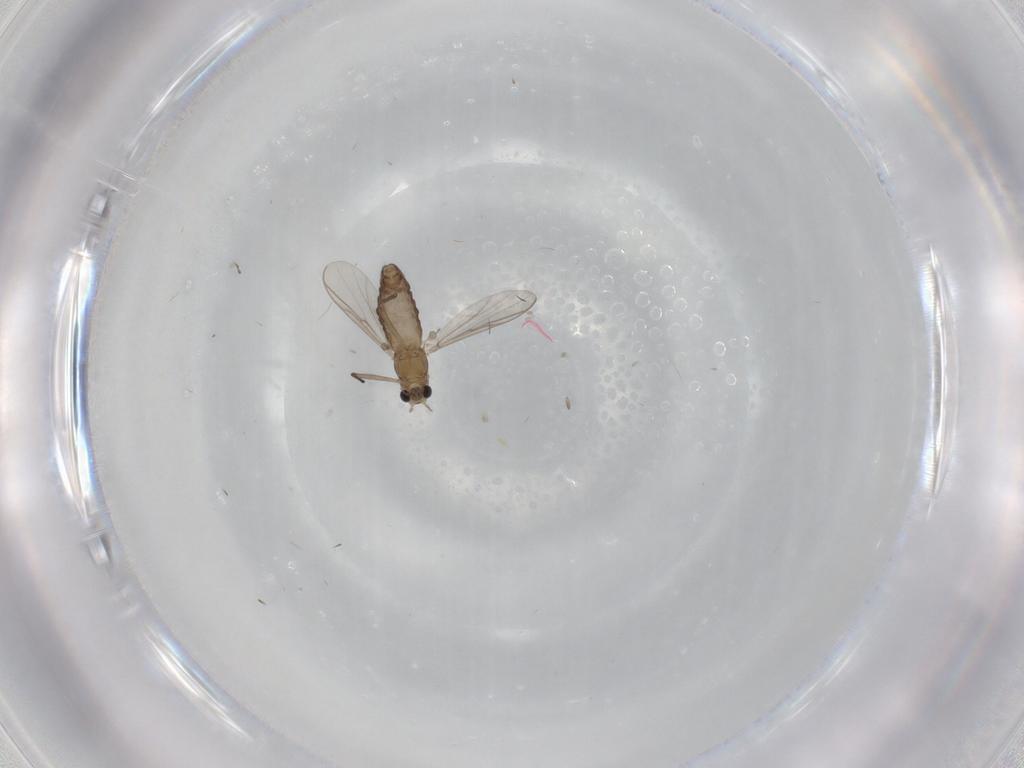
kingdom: Animalia
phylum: Arthropoda
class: Insecta
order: Diptera
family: Chironomidae
